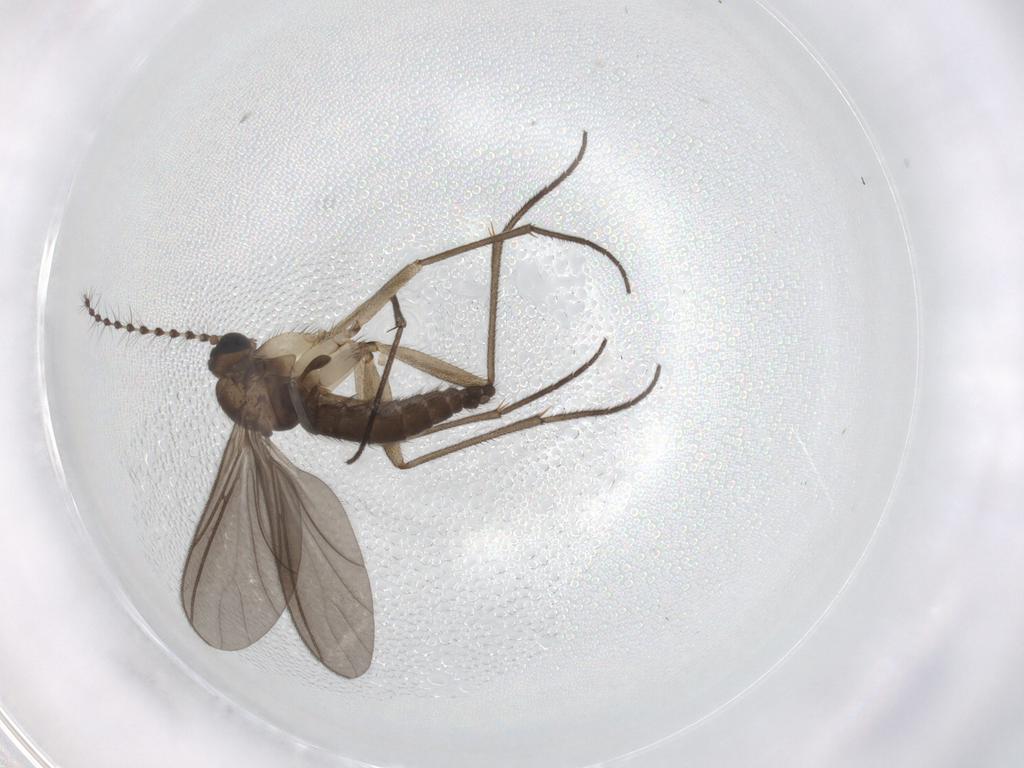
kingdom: Animalia
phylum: Arthropoda
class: Insecta
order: Diptera
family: Sciaridae
